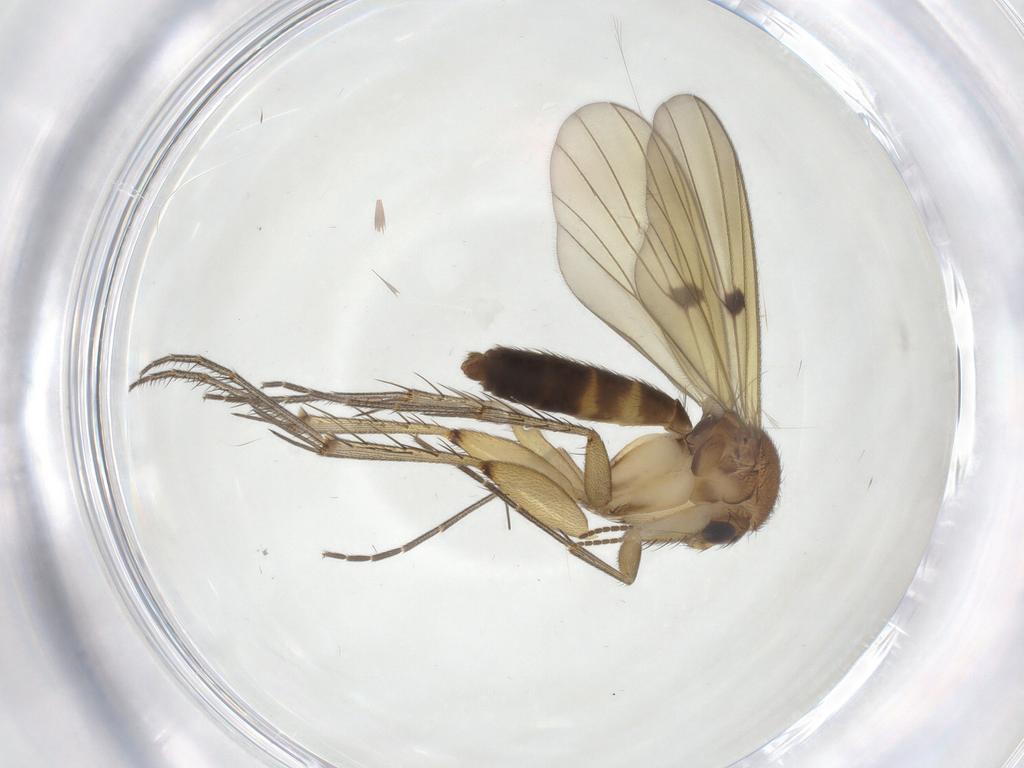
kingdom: Animalia
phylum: Arthropoda
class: Insecta
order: Diptera
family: Mycetophilidae
